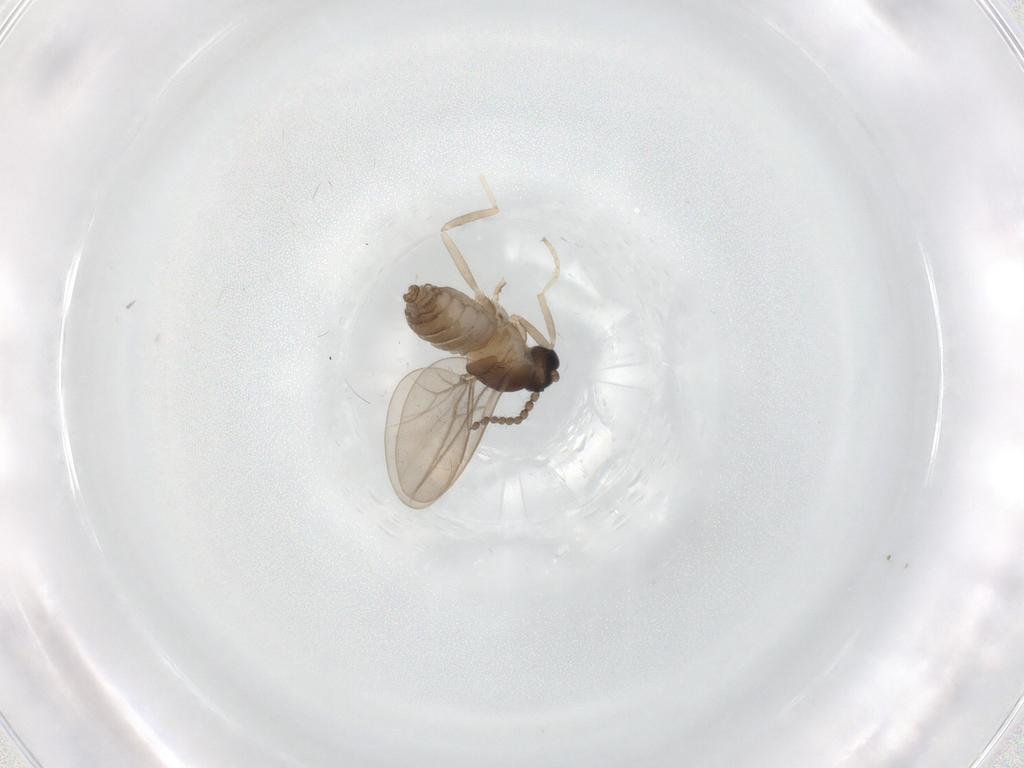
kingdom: Animalia
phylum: Arthropoda
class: Insecta
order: Diptera
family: Cecidomyiidae
